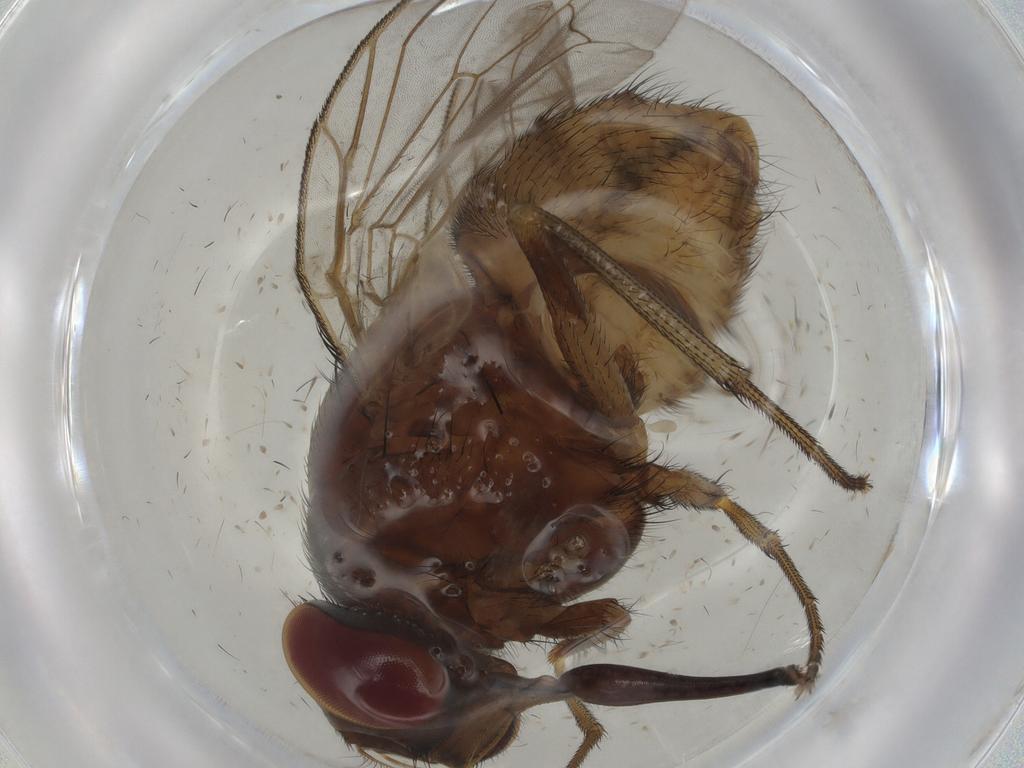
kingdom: Animalia
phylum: Arthropoda
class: Insecta
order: Diptera
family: Muscidae
